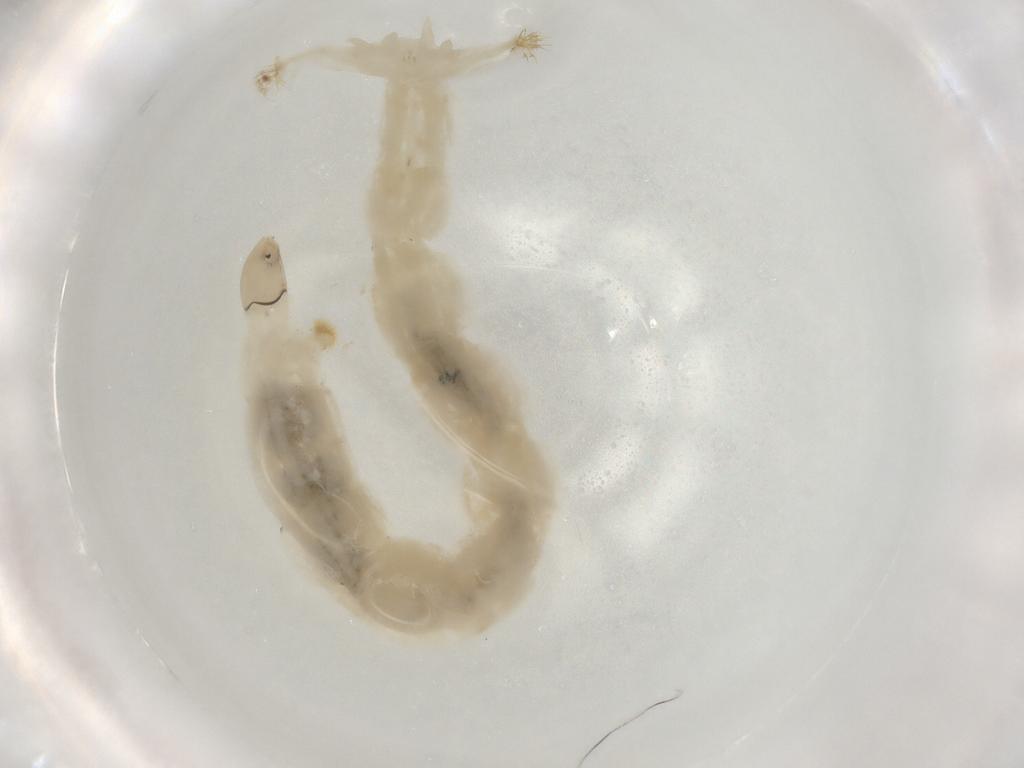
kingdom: Animalia
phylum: Arthropoda
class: Insecta
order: Diptera
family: Chironomidae
